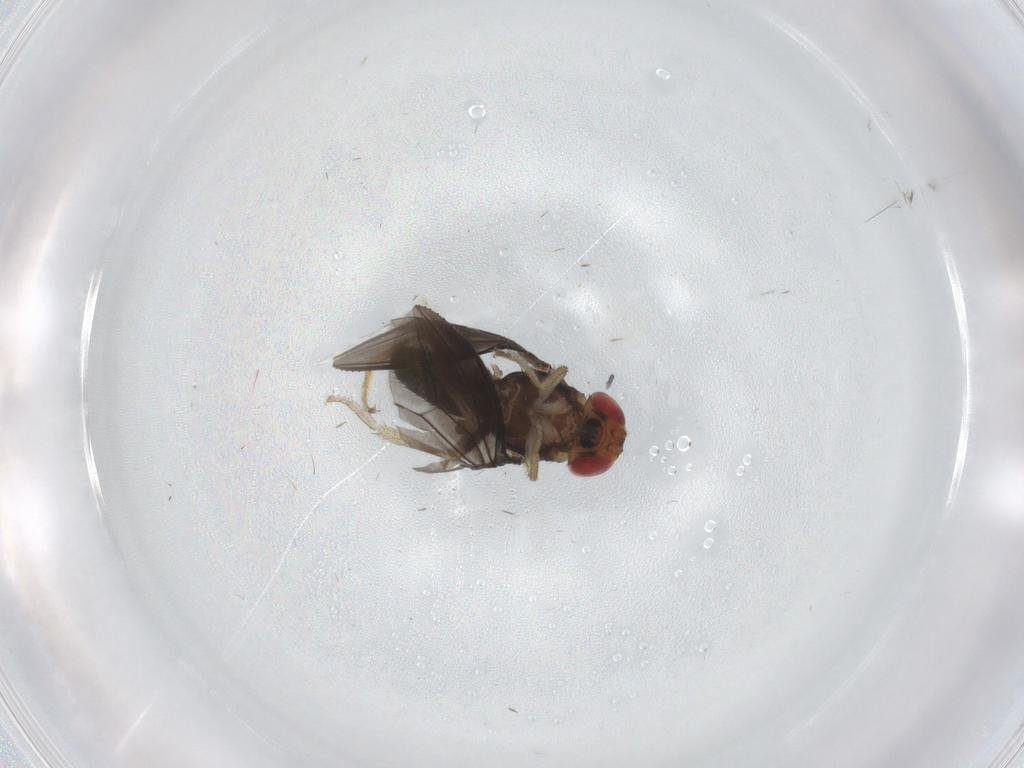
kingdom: Animalia
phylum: Arthropoda
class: Insecta
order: Diptera
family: Drosophilidae
